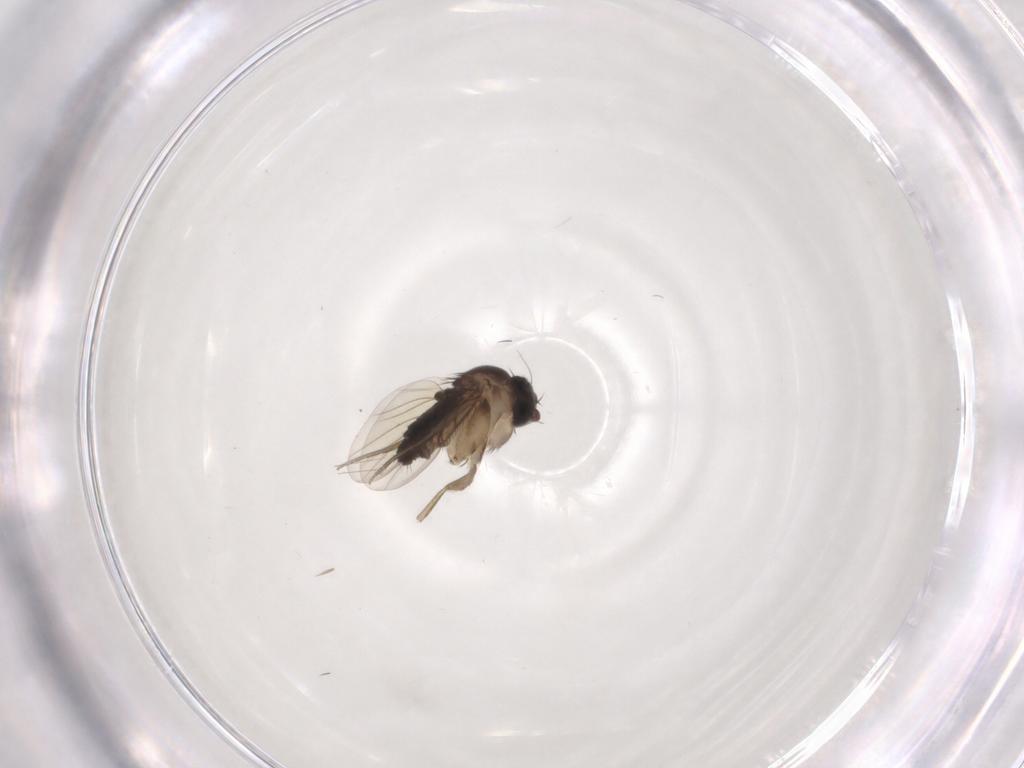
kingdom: Animalia
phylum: Arthropoda
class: Insecta
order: Diptera
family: Phoridae
